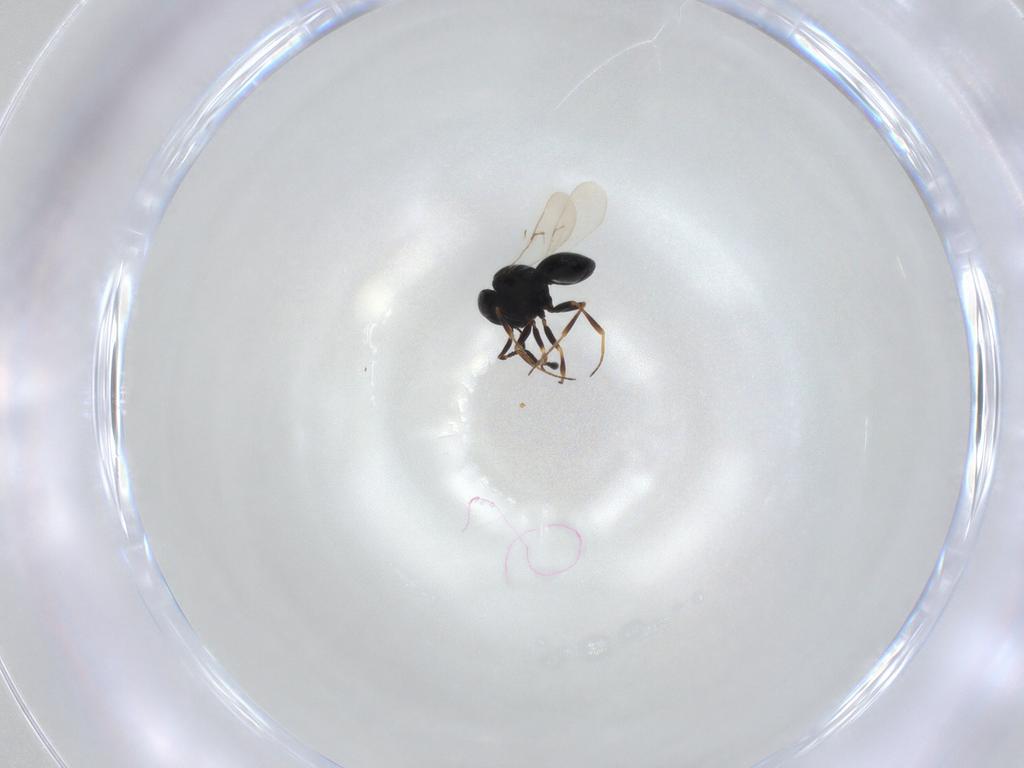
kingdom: Animalia
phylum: Arthropoda
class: Insecta
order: Hymenoptera
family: Scelionidae
